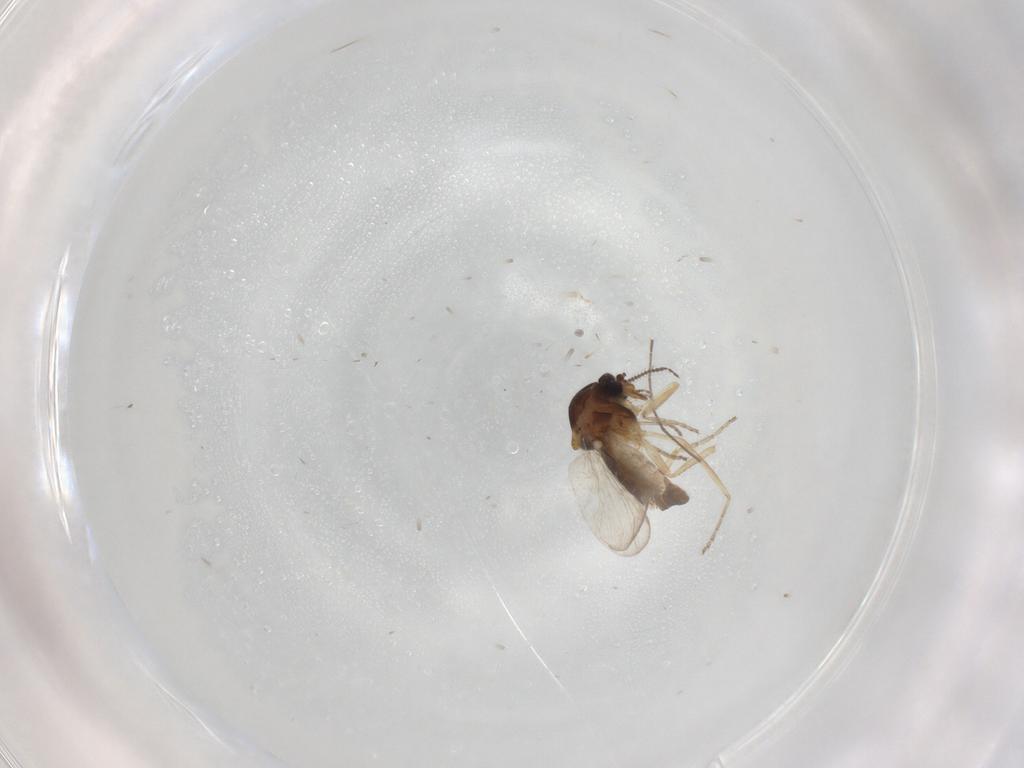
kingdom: Animalia
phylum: Arthropoda
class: Insecta
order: Diptera
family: Ceratopogonidae
